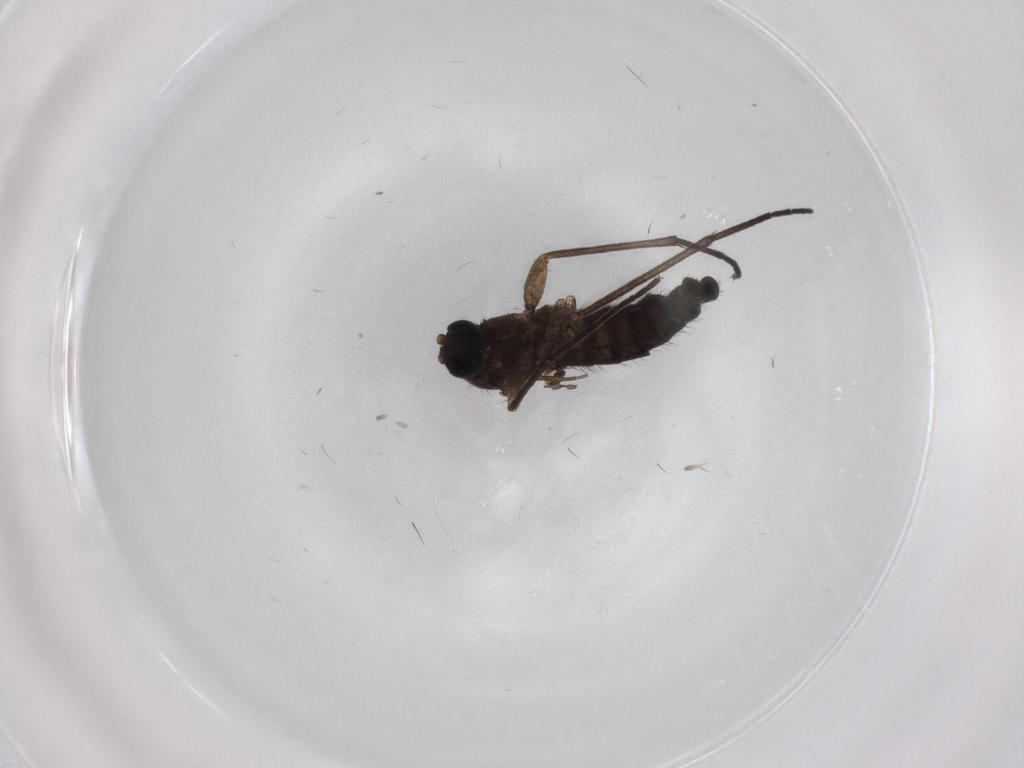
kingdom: Animalia
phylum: Arthropoda
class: Insecta
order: Diptera
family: Sciaridae
